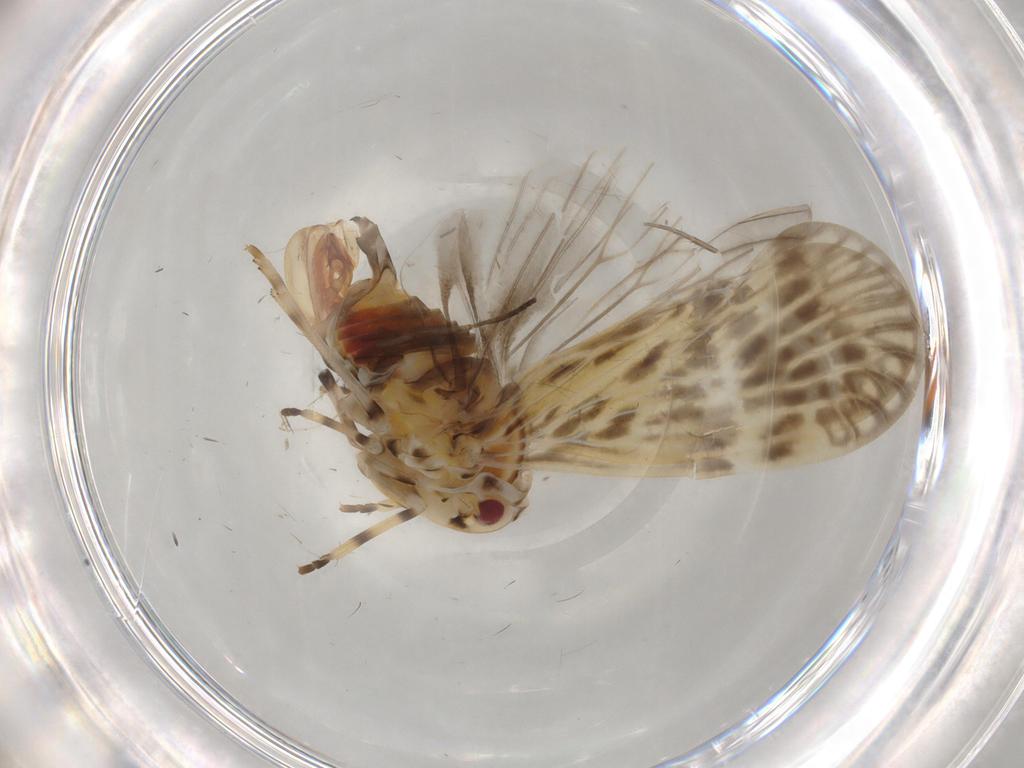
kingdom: Animalia
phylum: Arthropoda
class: Insecta
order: Hemiptera
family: Derbidae
